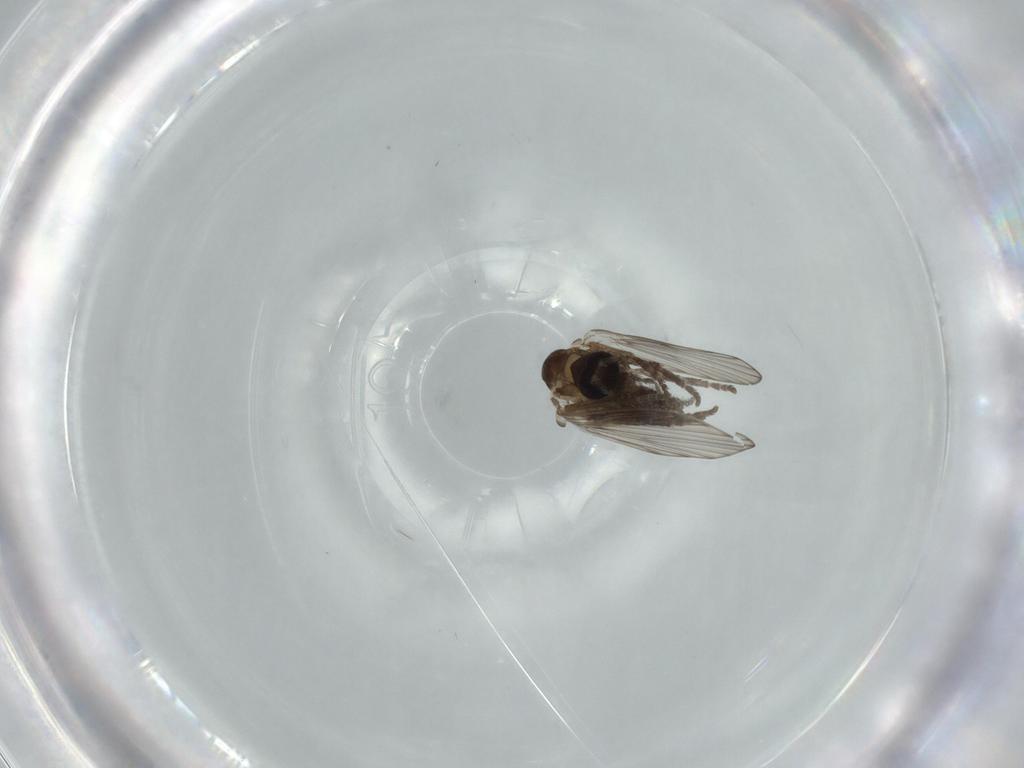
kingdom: Animalia
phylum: Arthropoda
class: Insecta
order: Diptera
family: Psychodidae
